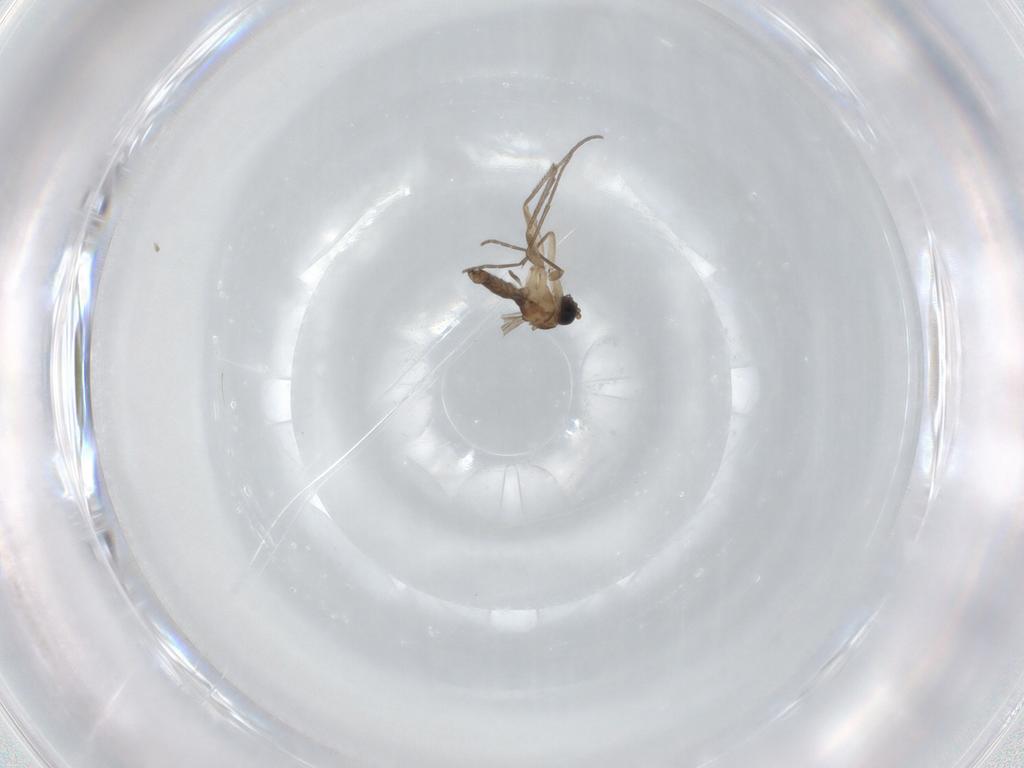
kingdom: Animalia
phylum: Arthropoda
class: Insecta
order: Diptera
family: Sciaridae
